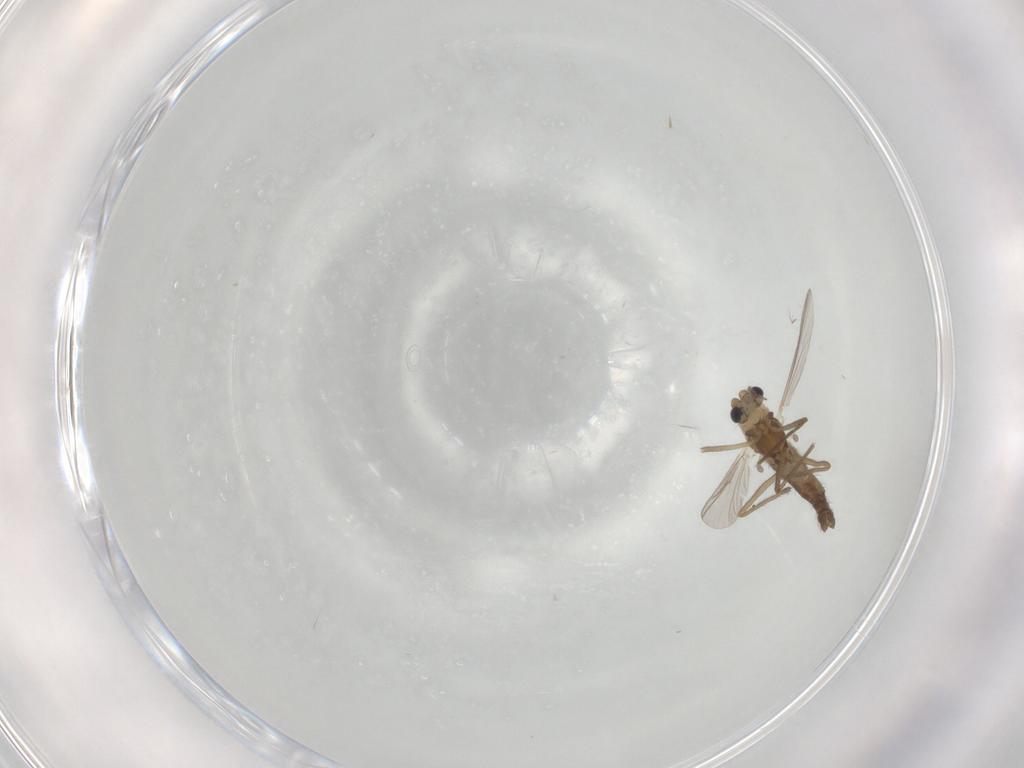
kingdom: Animalia
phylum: Arthropoda
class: Insecta
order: Diptera
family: Chironomidae
